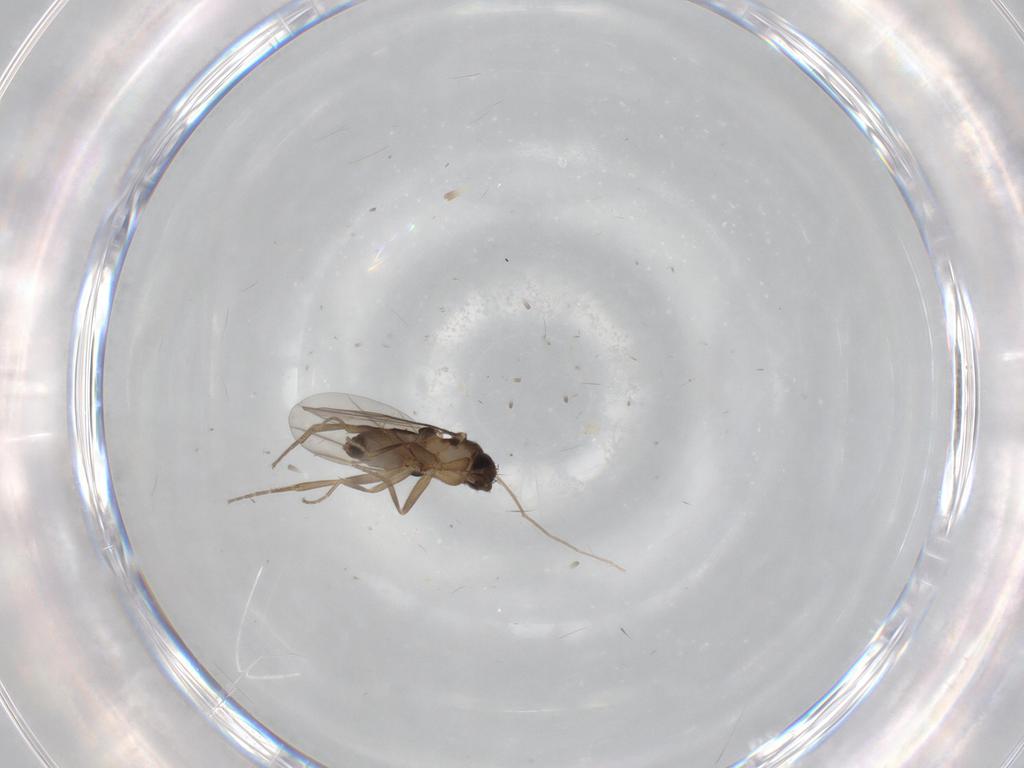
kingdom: Animalia
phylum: Arthropoda
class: Insecta
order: Diptera
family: Phoridae
